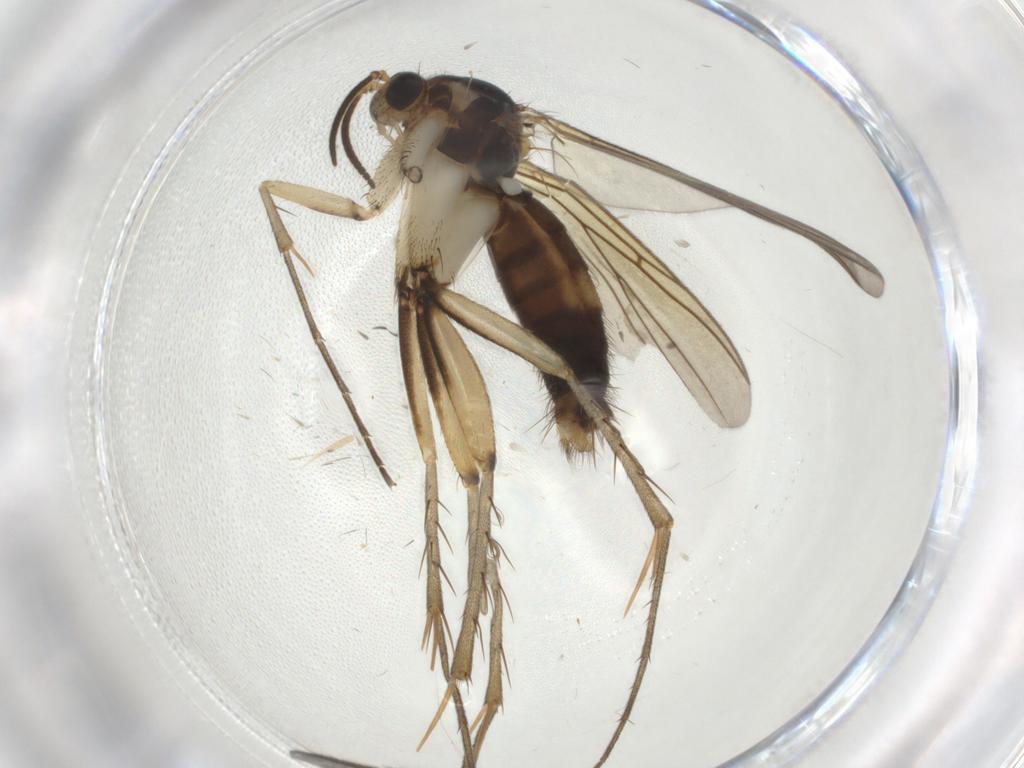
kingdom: Animalia
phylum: Arthropoda
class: Insecta
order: Diptera
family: Sciaridae
